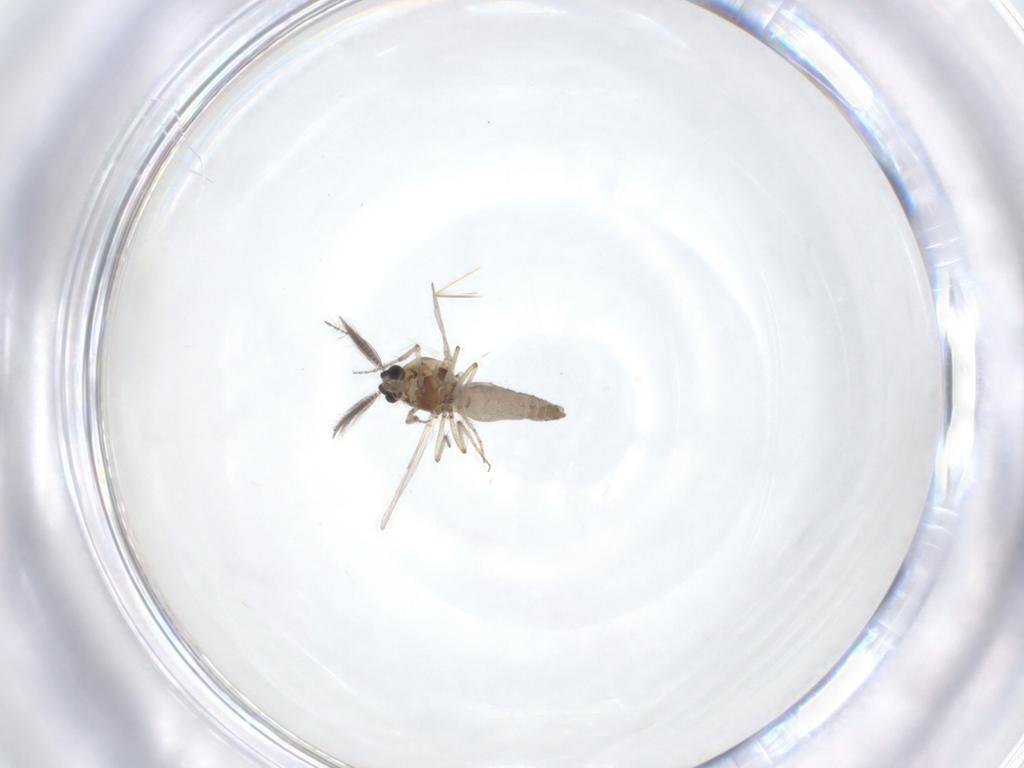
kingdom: Animalia
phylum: Arthropoda
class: Insecta
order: Diptera
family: Ceratopogonidae
